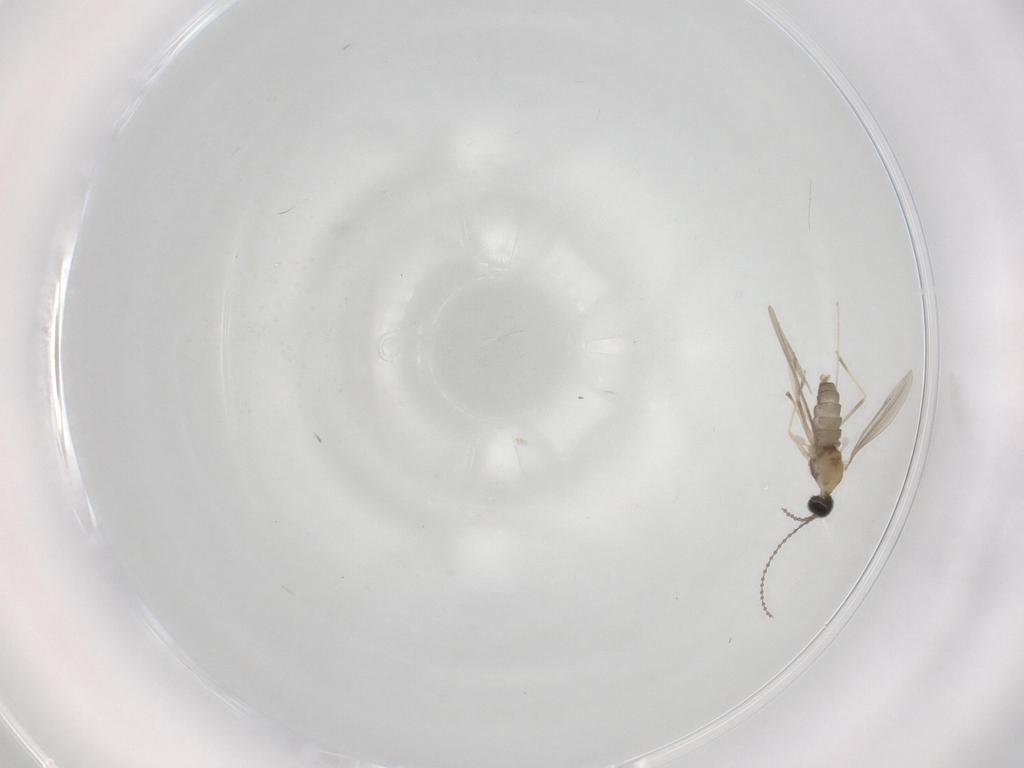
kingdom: Animalia
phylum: Arthropoda
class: Insecta
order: Diptera
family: Cecidomyiidae
